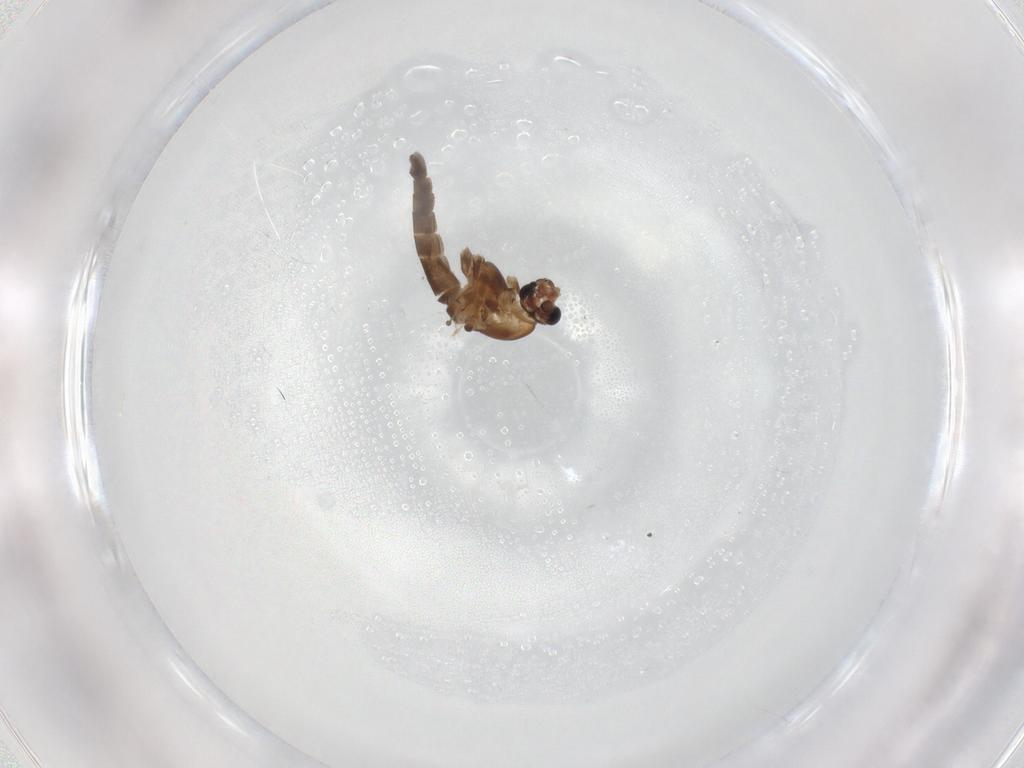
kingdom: Animalia
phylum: Arthropoda
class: Insecta
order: Diptera
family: Chironomidae
